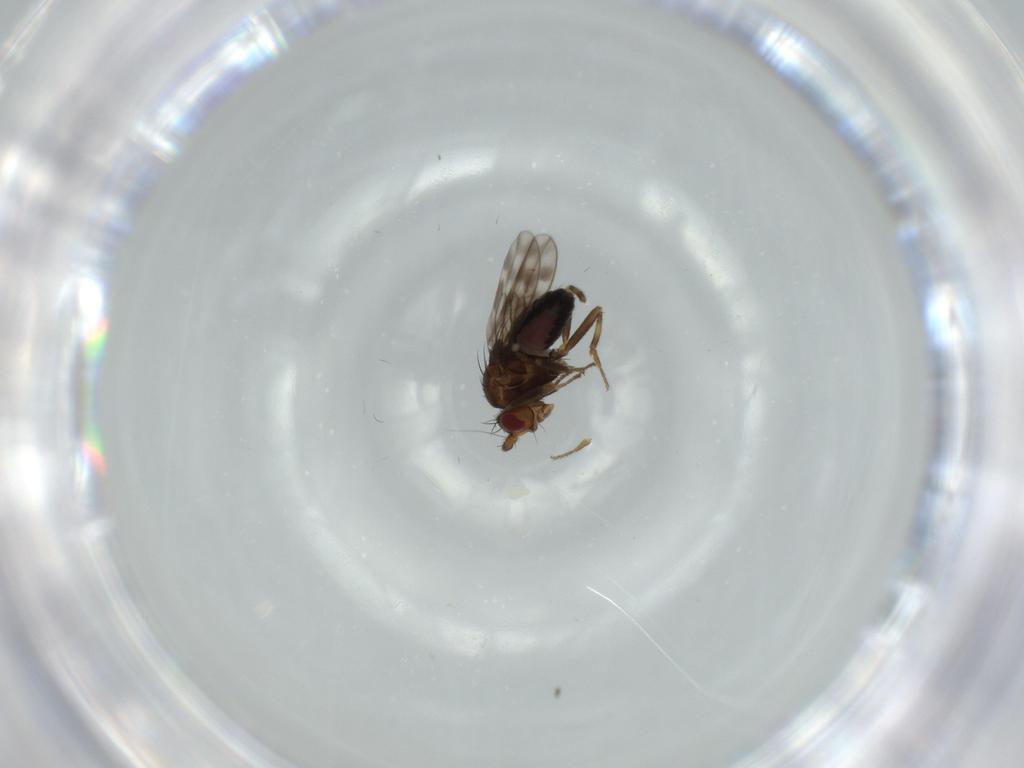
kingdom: Animalia
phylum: Arthropoda
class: Insecta
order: Diptera
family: Sphaeroceridae
